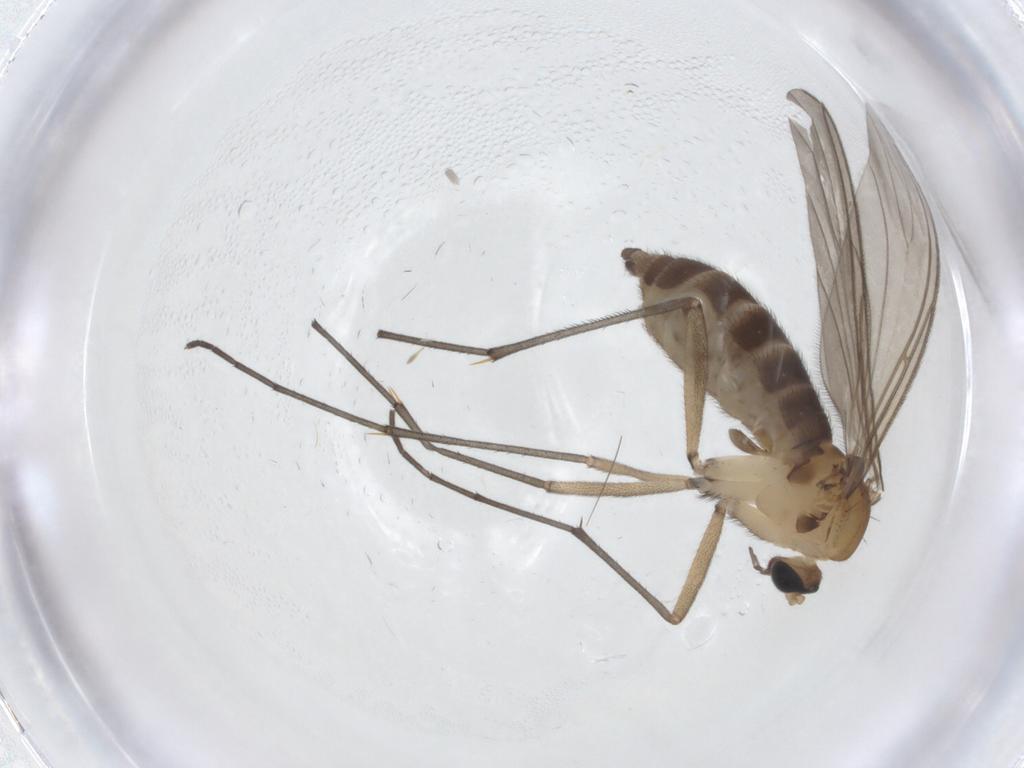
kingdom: Animalia
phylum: Arthropoda
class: Insecta
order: Diptera
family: Sciaridae
